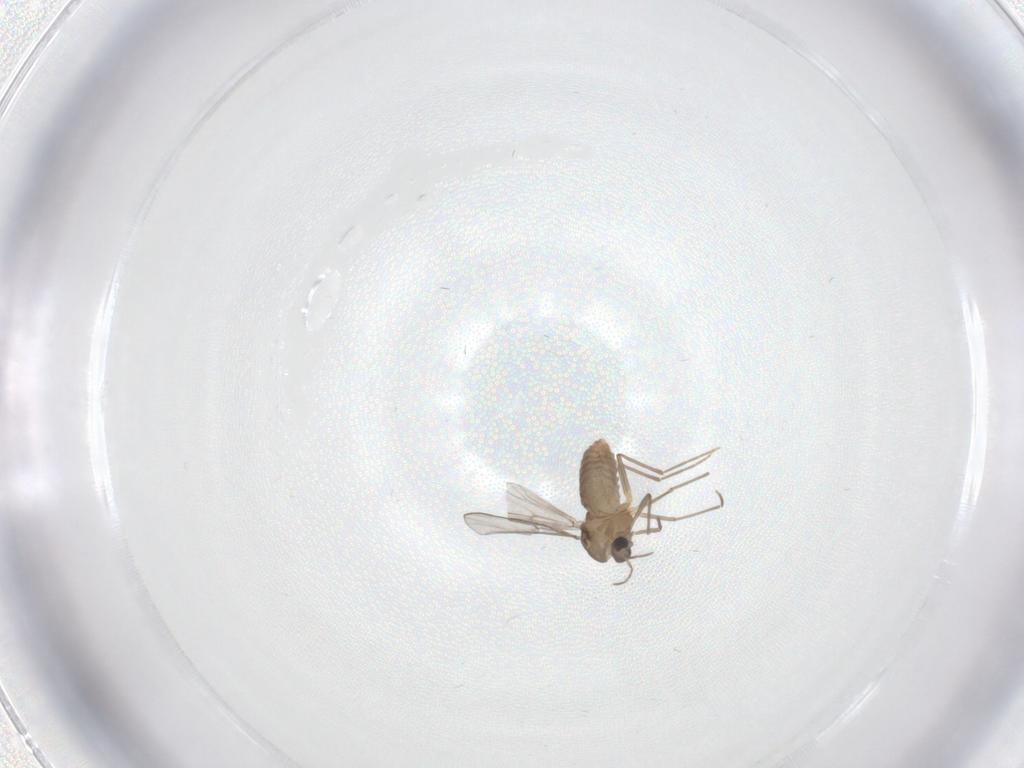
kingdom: Animalia
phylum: Arthropoda
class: Insecta
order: Diptera
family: Chironomidae
